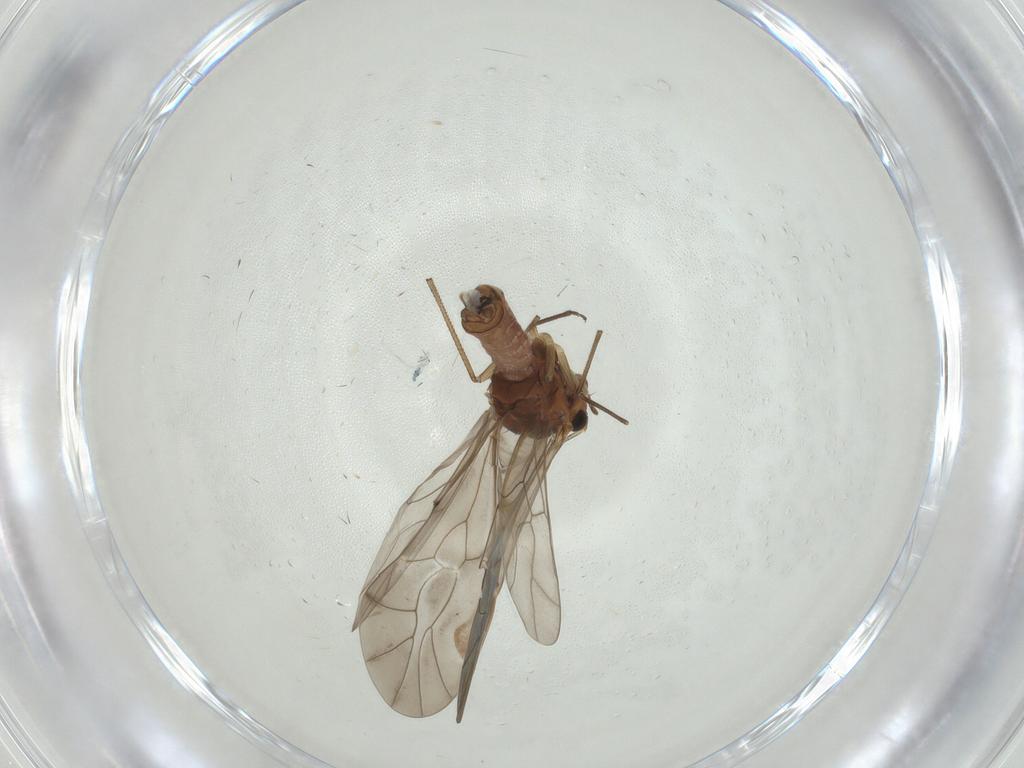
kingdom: Animalia
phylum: Arthropoda
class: Insecta
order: Psocodea
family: Peripsocidae
